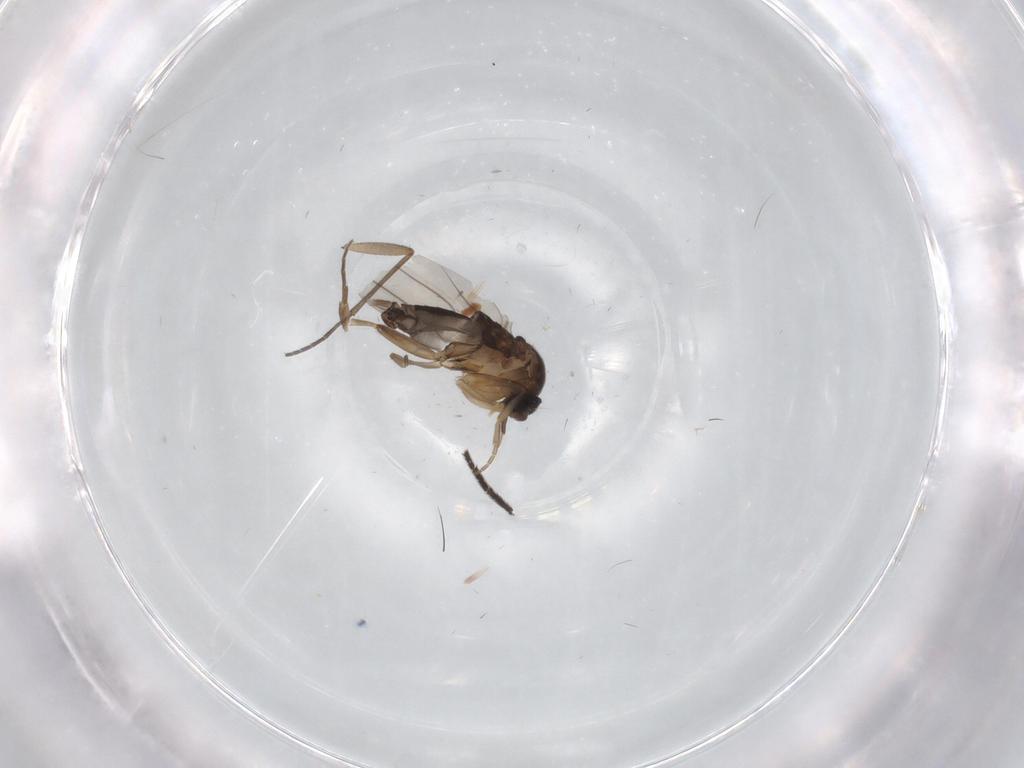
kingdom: Animalia
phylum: Arthropoda
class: Insecta
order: Diptera
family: Phoridae
